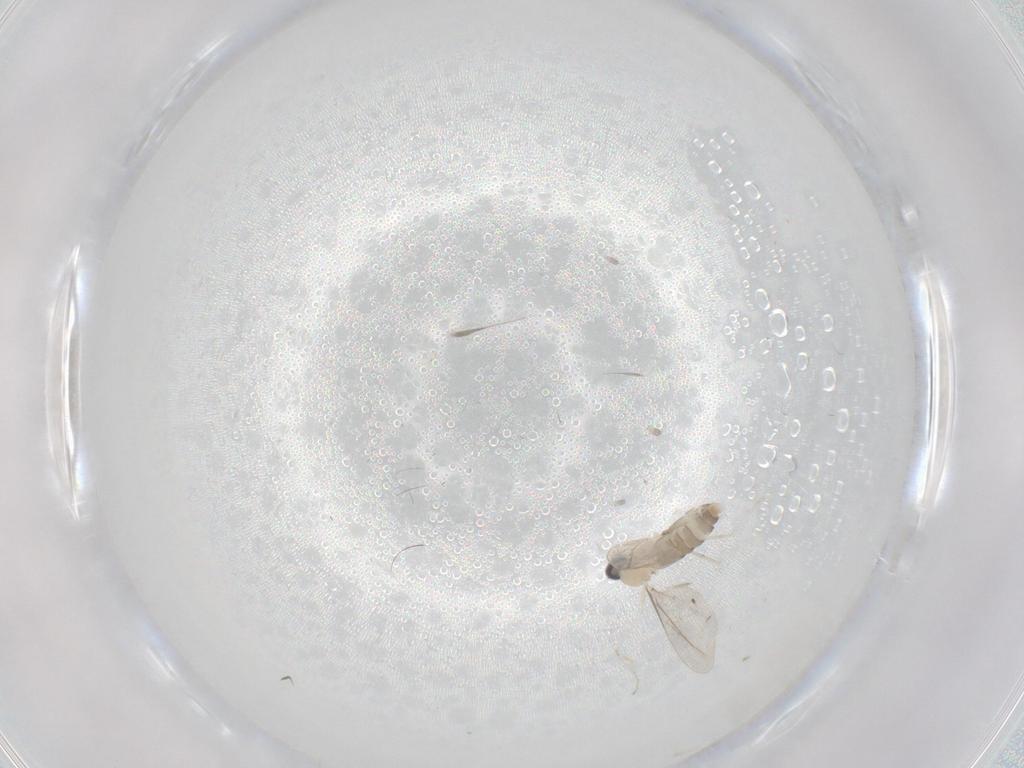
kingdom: Animalia
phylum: Arthropoda
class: Insecta
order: Diptera
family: Cecidomyiidae
